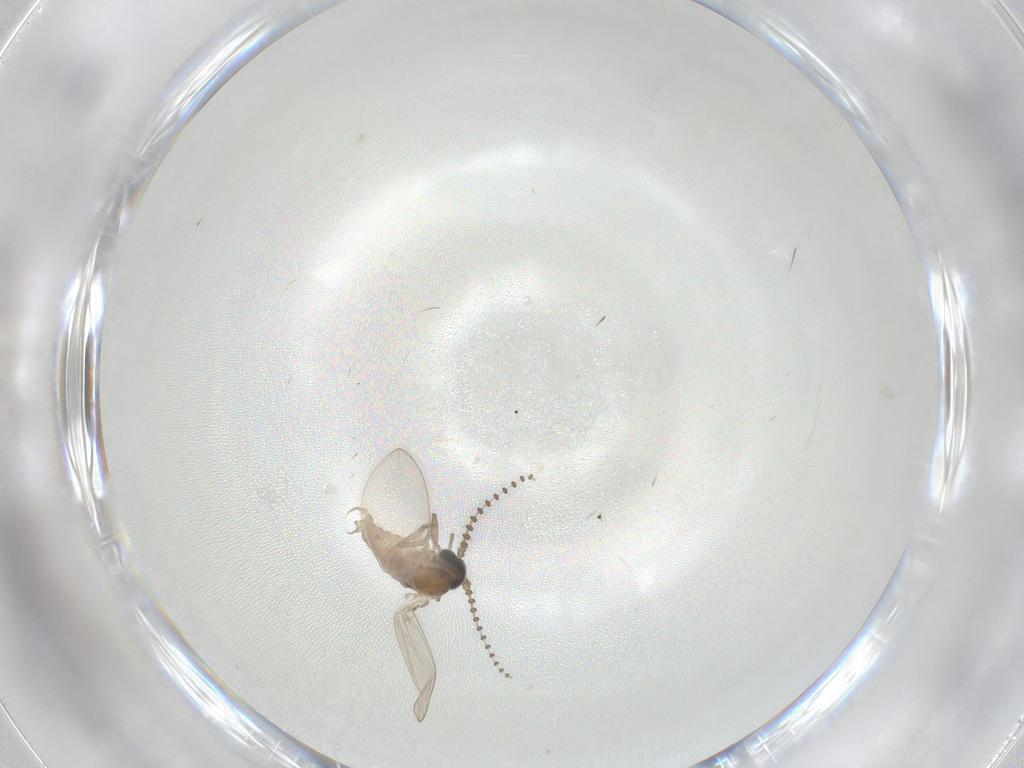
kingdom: Animalia
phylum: Arthropoda
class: Insecta
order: Diptera
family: Psychodidae
